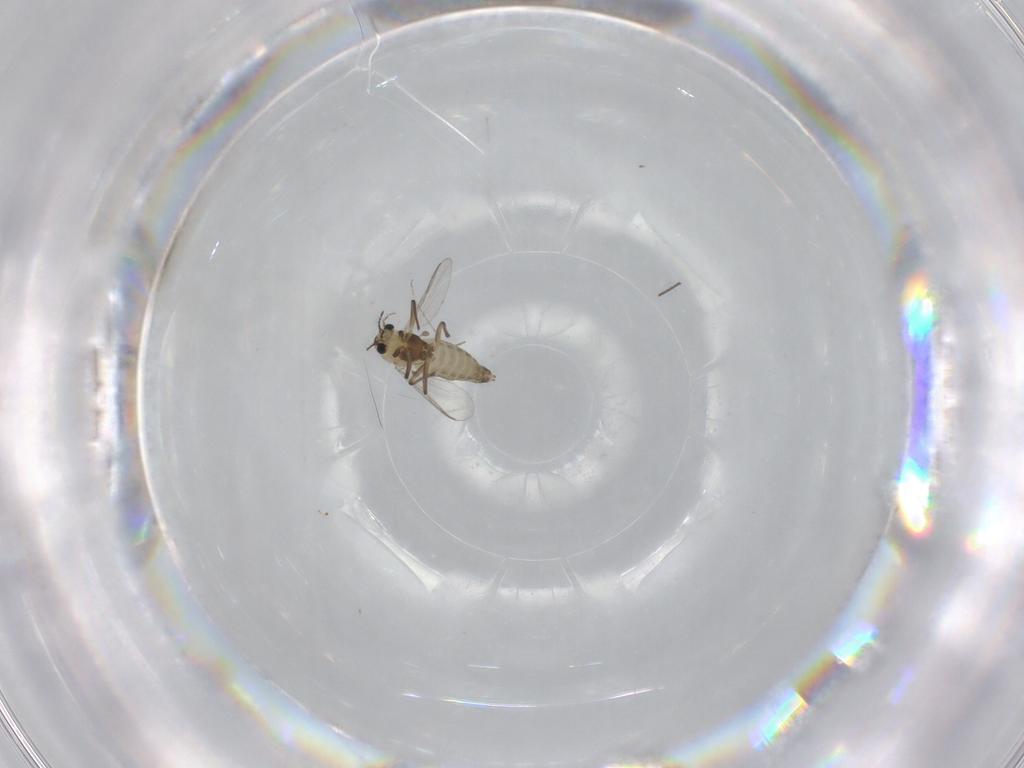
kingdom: Animalia
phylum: Arthropoda
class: Insecta
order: Diptera
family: Chironomidae
